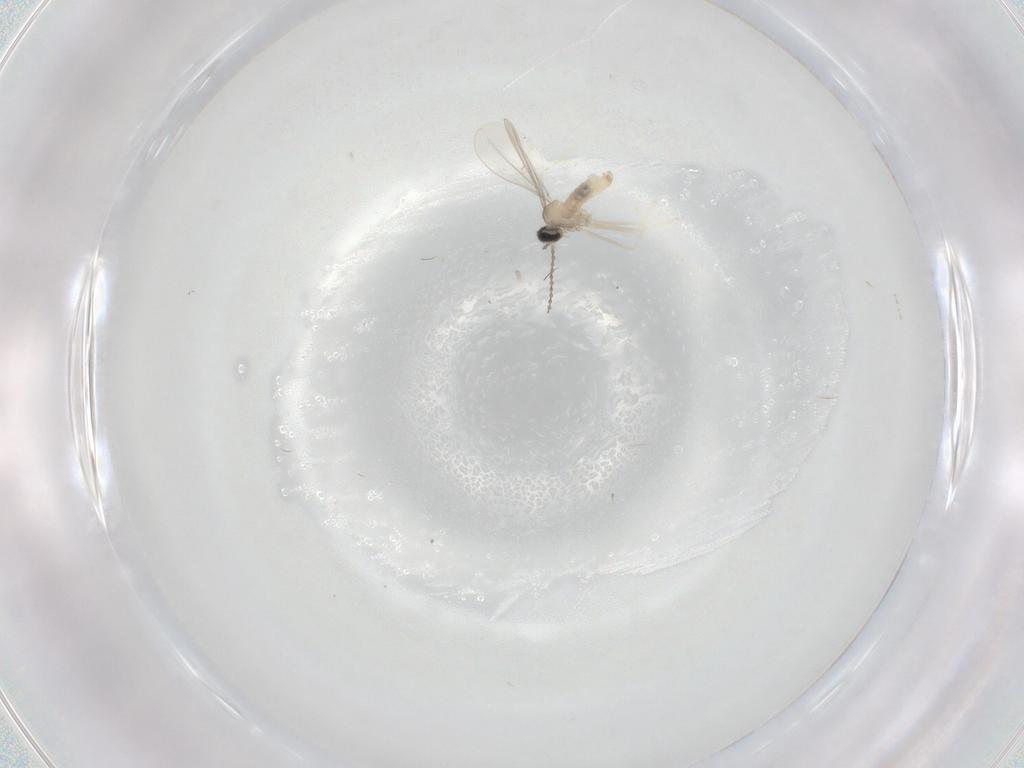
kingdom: Animalia
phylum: Arthropoda
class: Insecta
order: Diptera
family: Cecidomyiidae
